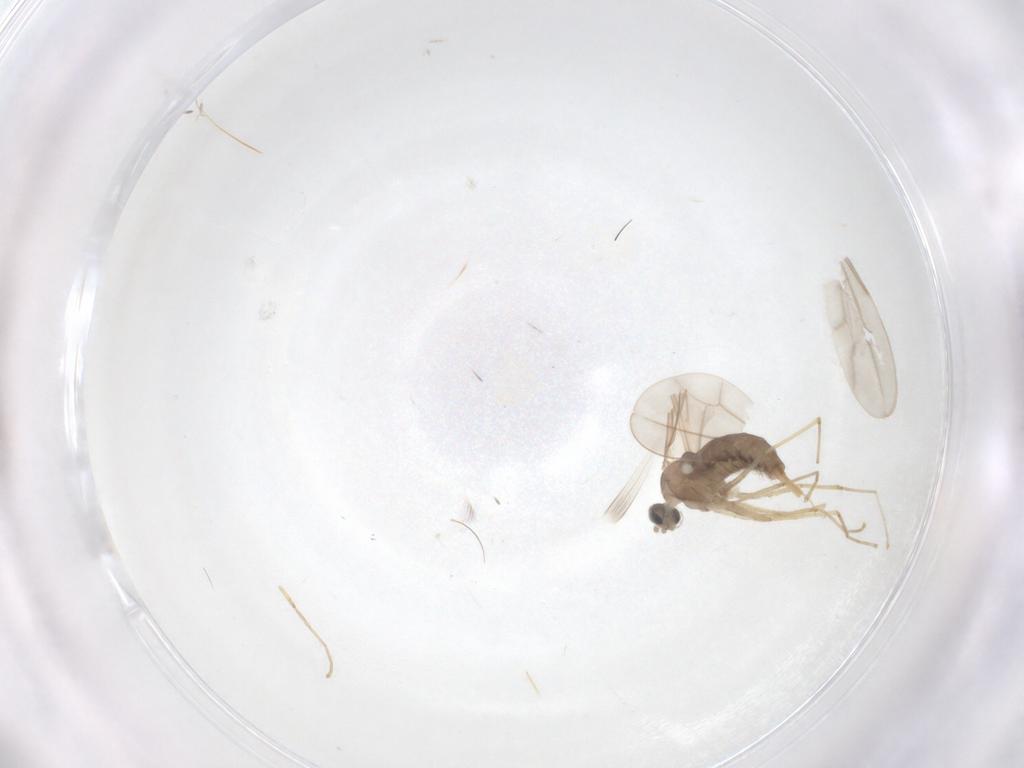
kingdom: Animalia
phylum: Arthropoda
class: Insecta
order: Diptera
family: Cecidomyiidae
